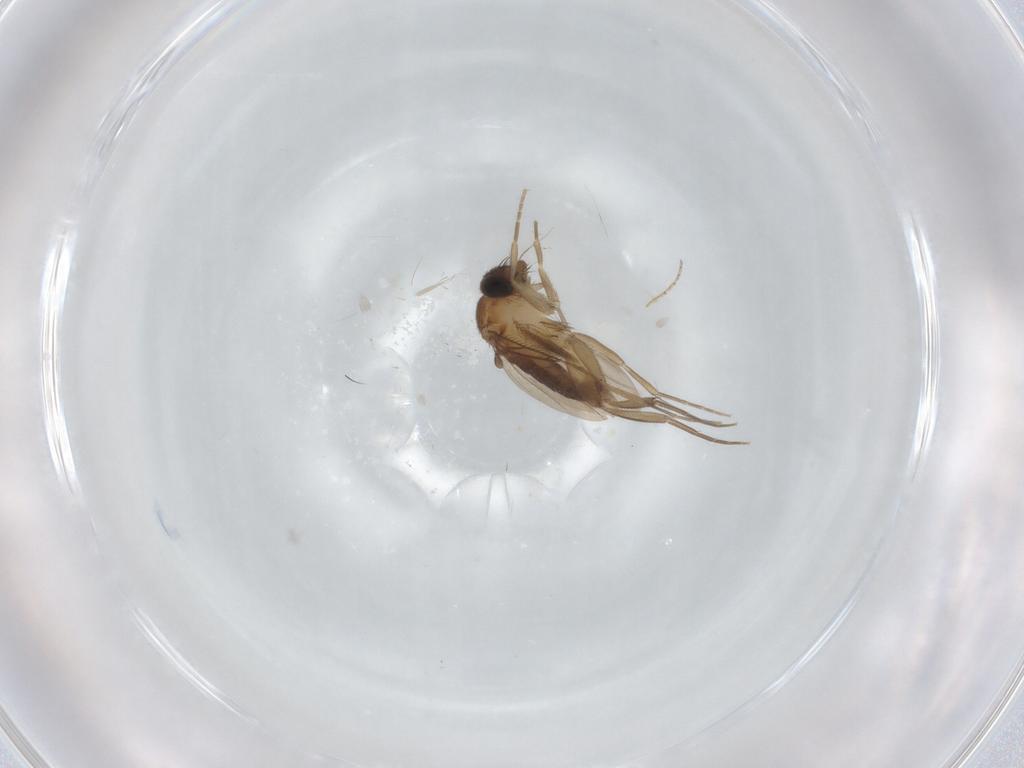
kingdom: Animalia
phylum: Arthropoda
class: Insecta
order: Diptera
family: Phoridae
